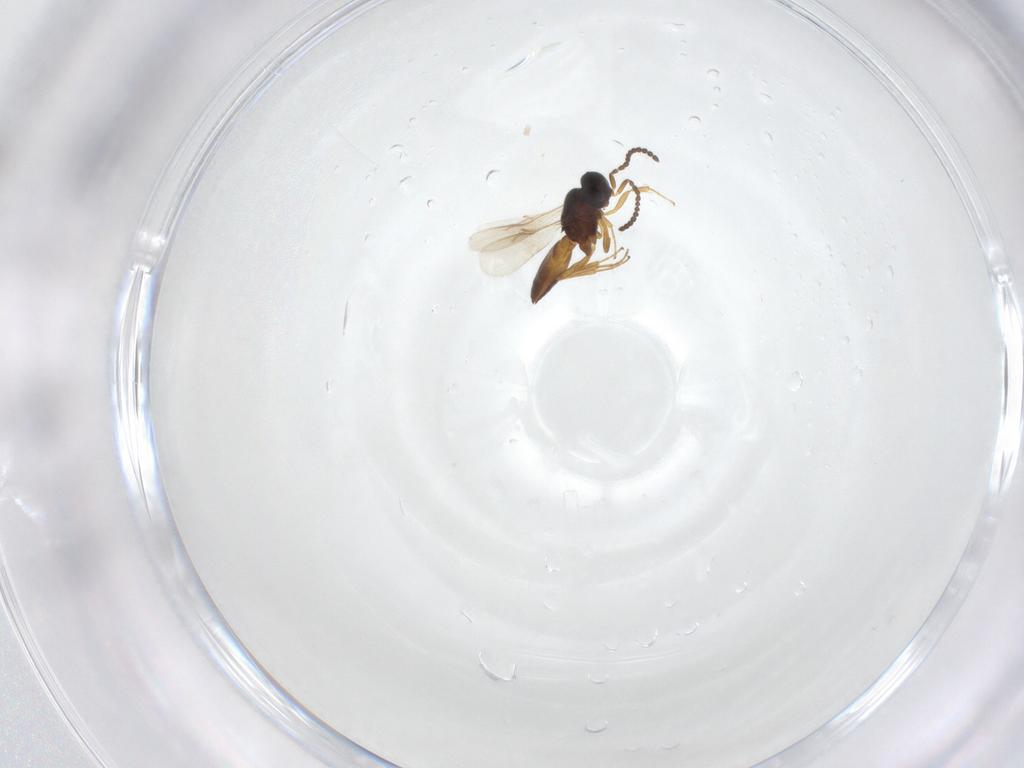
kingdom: Animalia
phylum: Arthropoda
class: Insecta
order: Hymenoptera
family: Scelionidae
